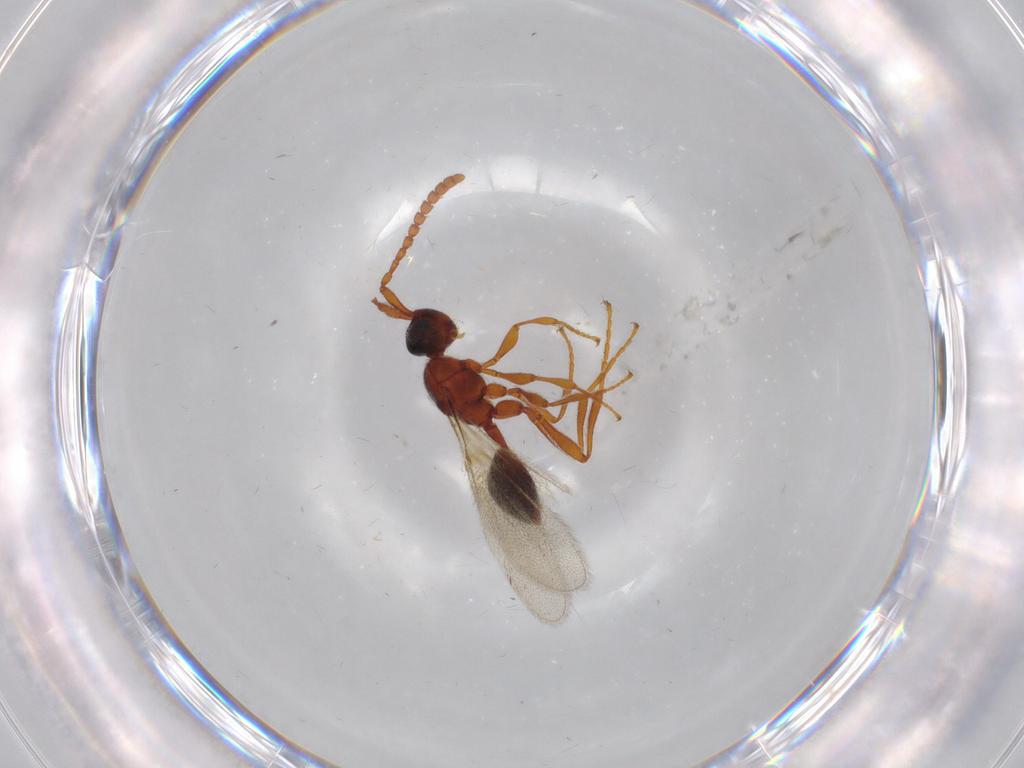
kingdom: Animalia
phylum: Arthropoda
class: Insecta
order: Hymenoptera
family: Diapriidae
